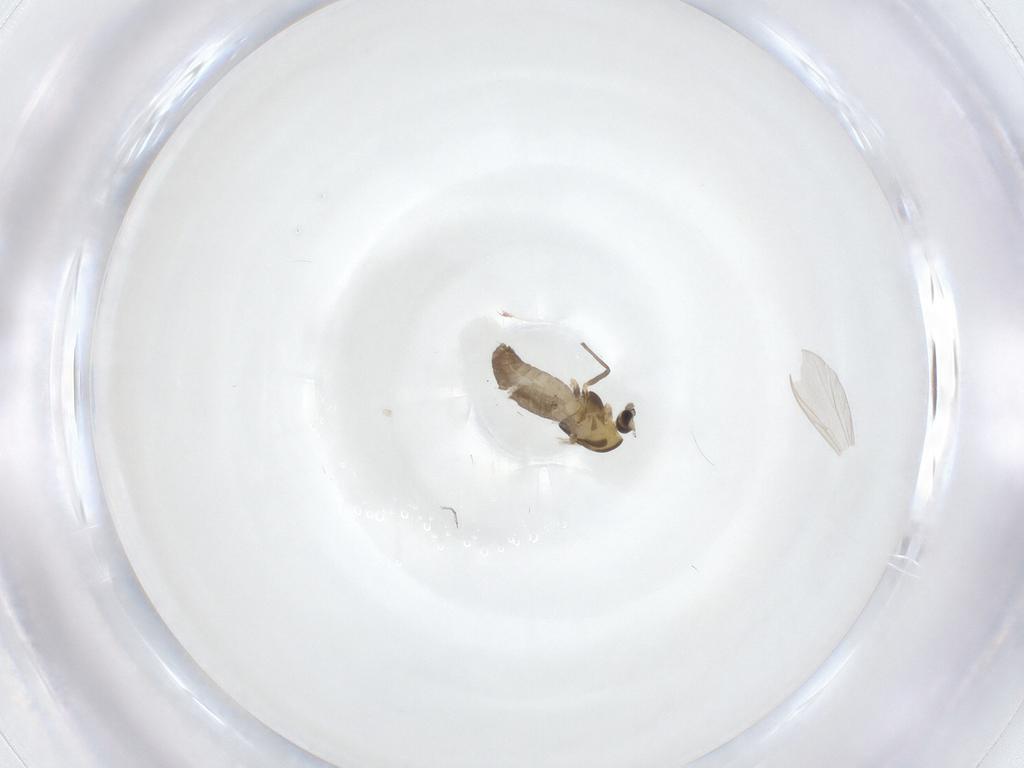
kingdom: Animalia
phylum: Arthropoda
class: Insecta
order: Diptera
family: Chironomidae
